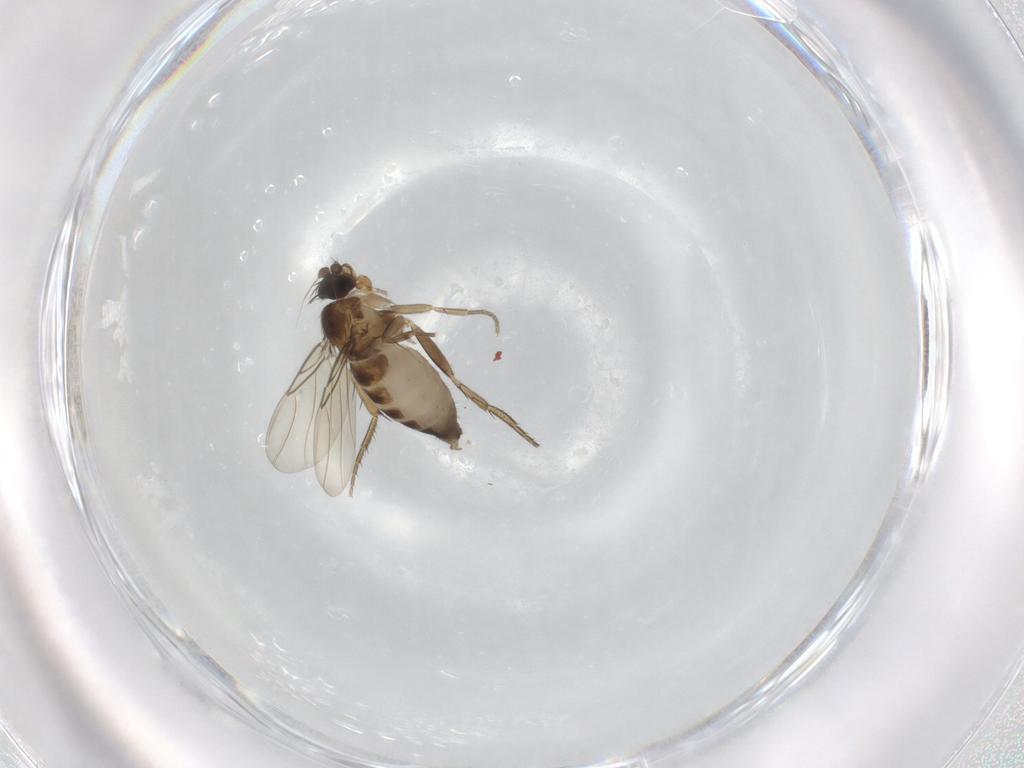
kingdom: Animalia
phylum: Arthropoda
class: Insecta
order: Diptera
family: Phoridae
